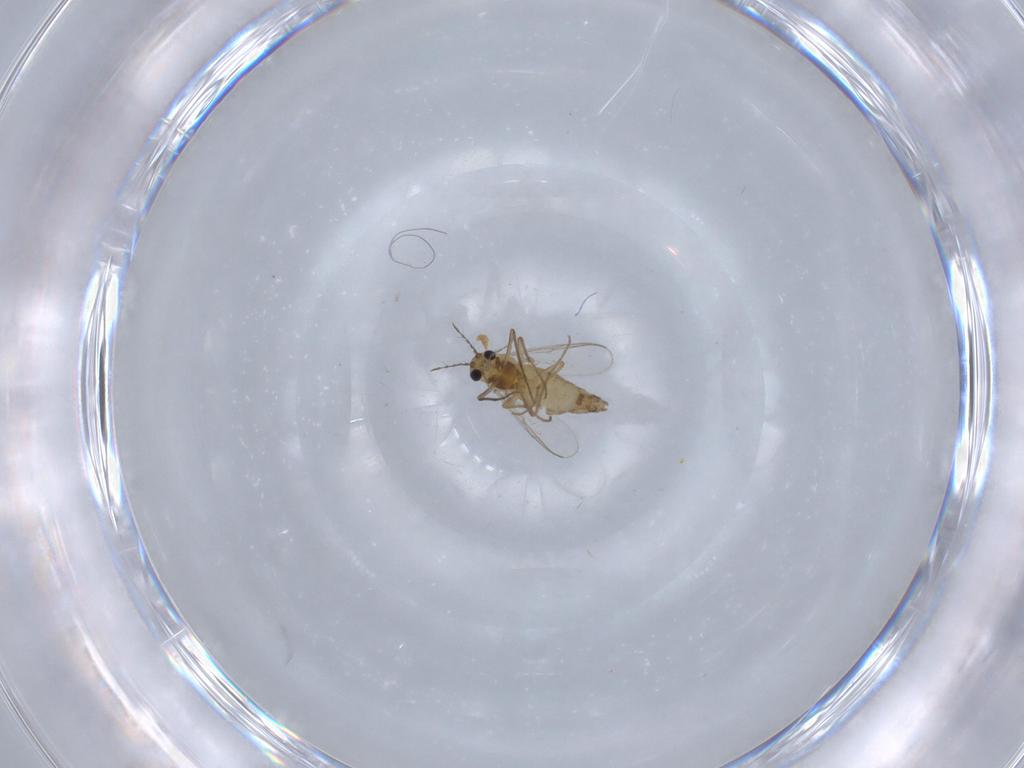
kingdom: Animalia
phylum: Arthropoda
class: Insecta
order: Diptera
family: Chironomidae
